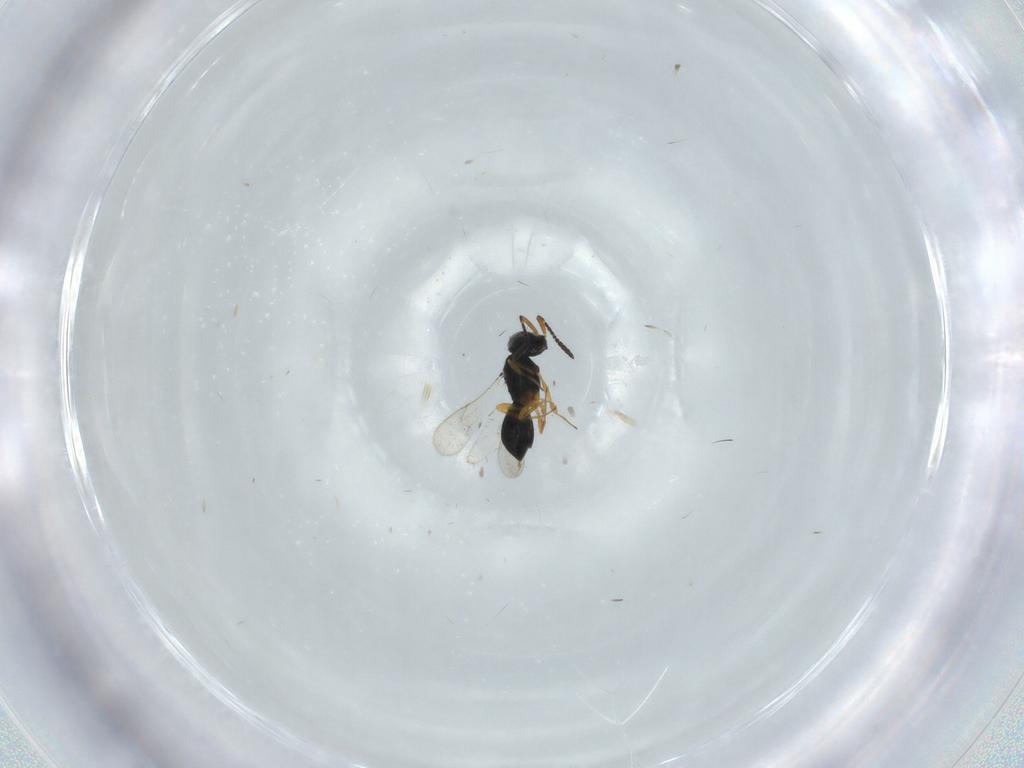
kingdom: Animalia
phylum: Arthropoda
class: Insecta
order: Hymenoptera
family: Scelionidae
